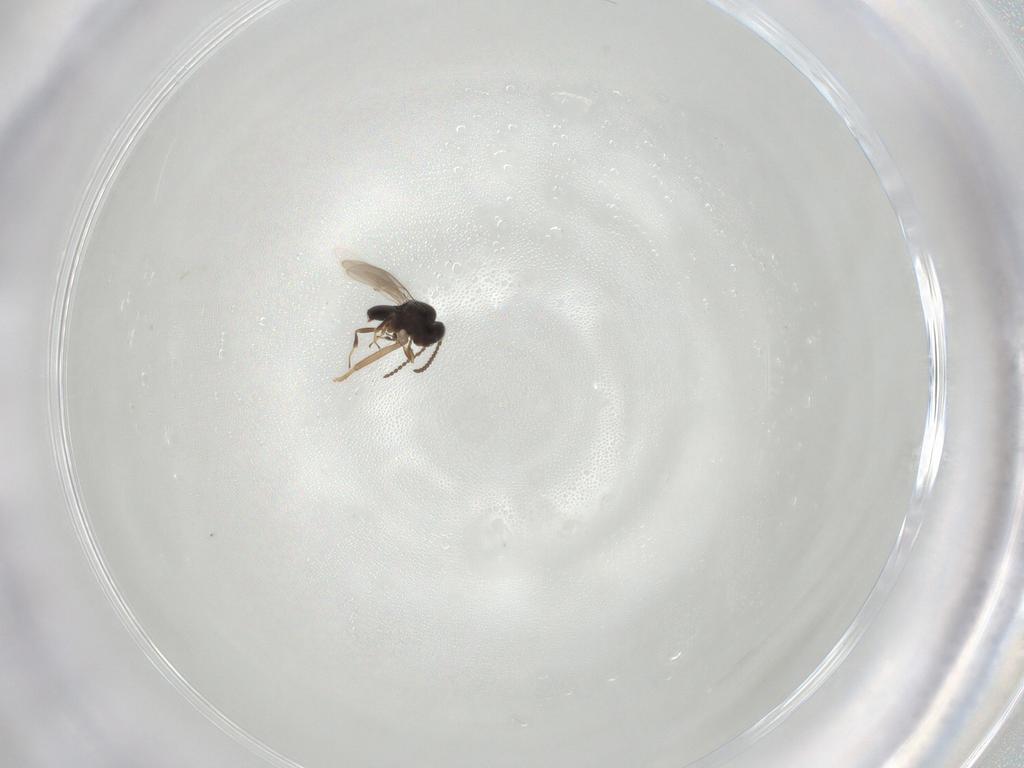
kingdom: Animalia
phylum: Arthropoda
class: Insecta
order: Hymenoptera
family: Scelionidae
